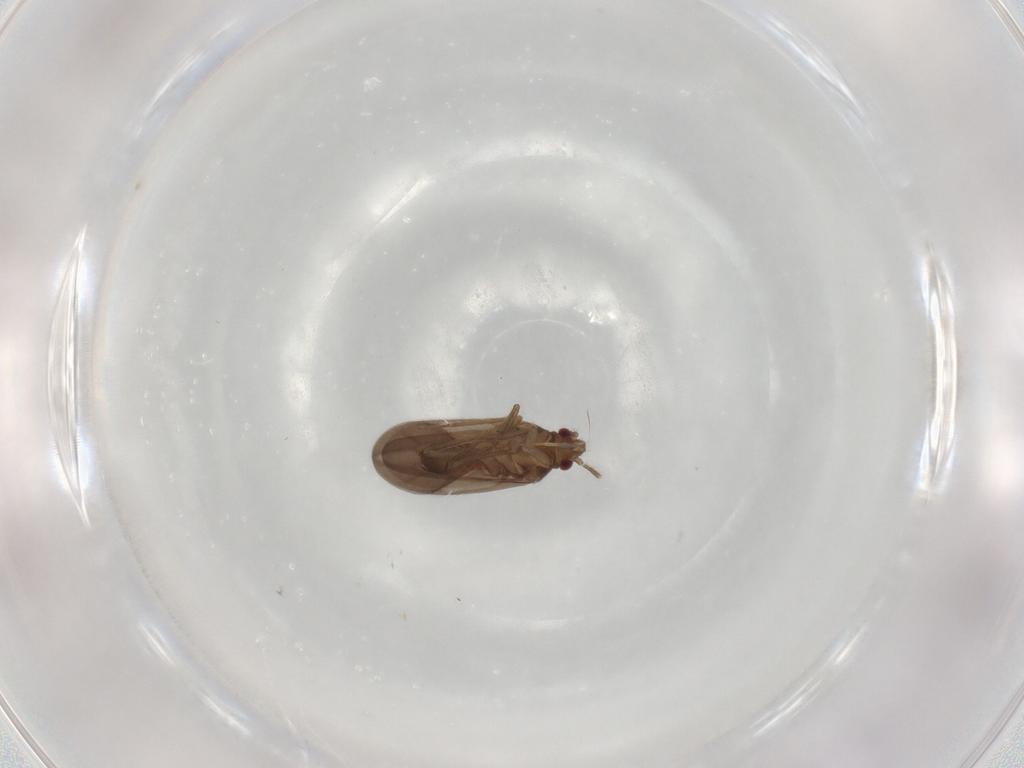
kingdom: Animalia
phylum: Arthropoda
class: Insecta
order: Hemiptera
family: Ceratocombidae
